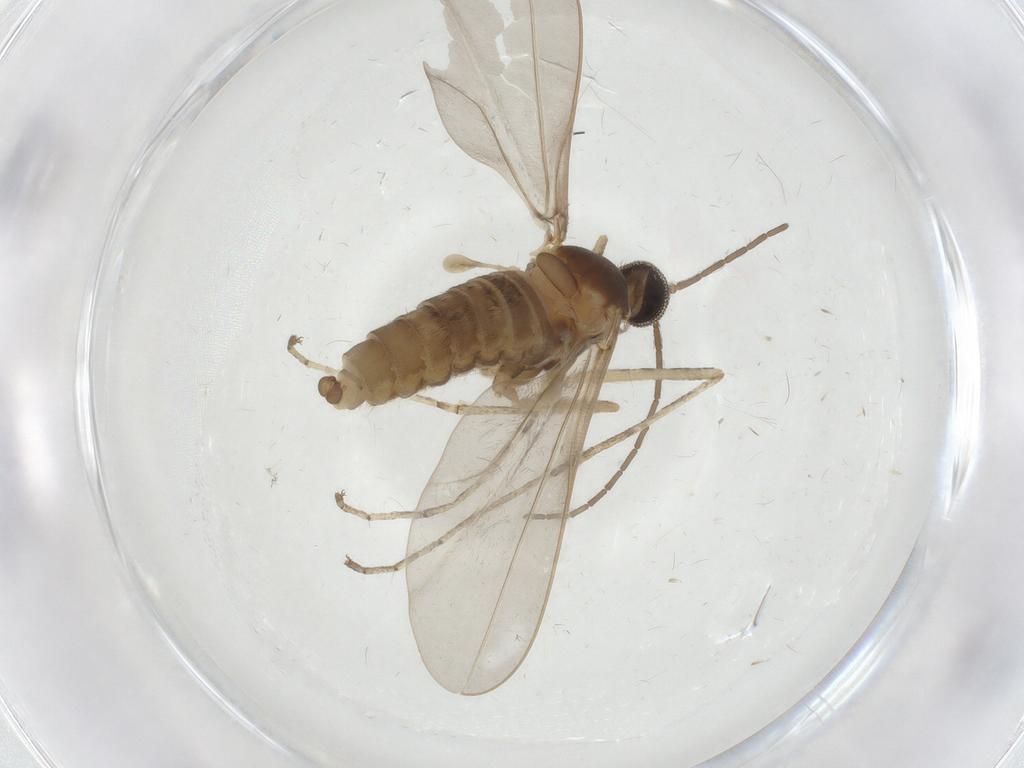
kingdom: Animalia
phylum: Arthropoda
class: Insecta
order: Diptera
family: Cecidomyiidae
